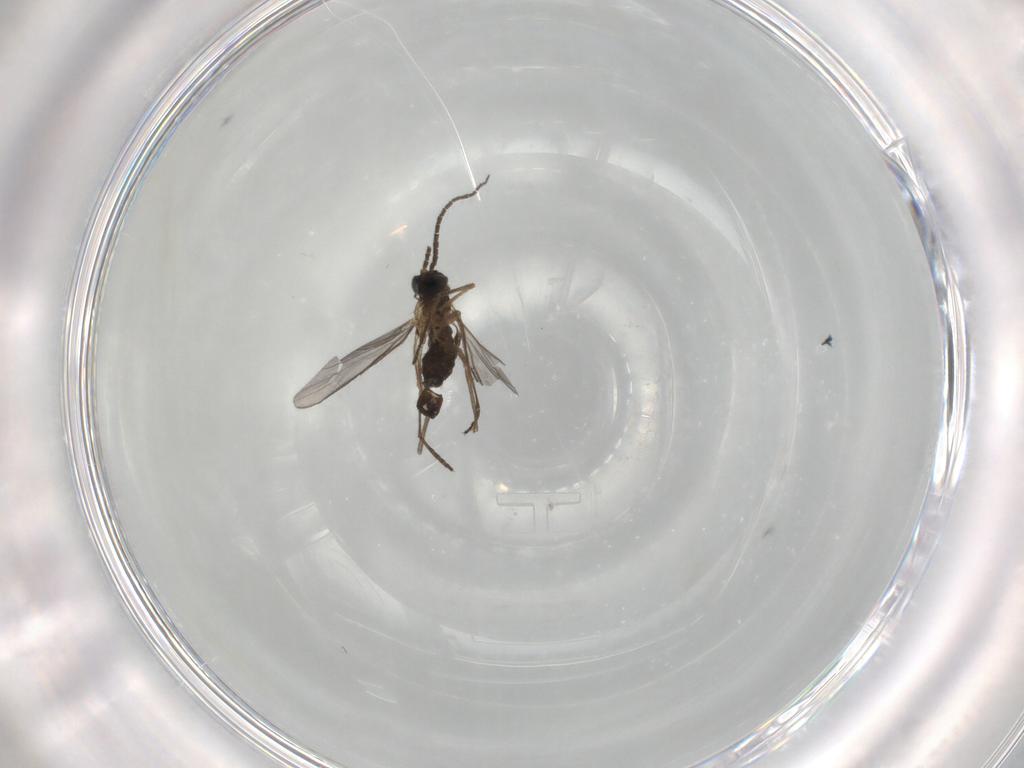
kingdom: Animalia
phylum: Arthropoda
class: Insecta
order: Diptera
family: Sciaridae
